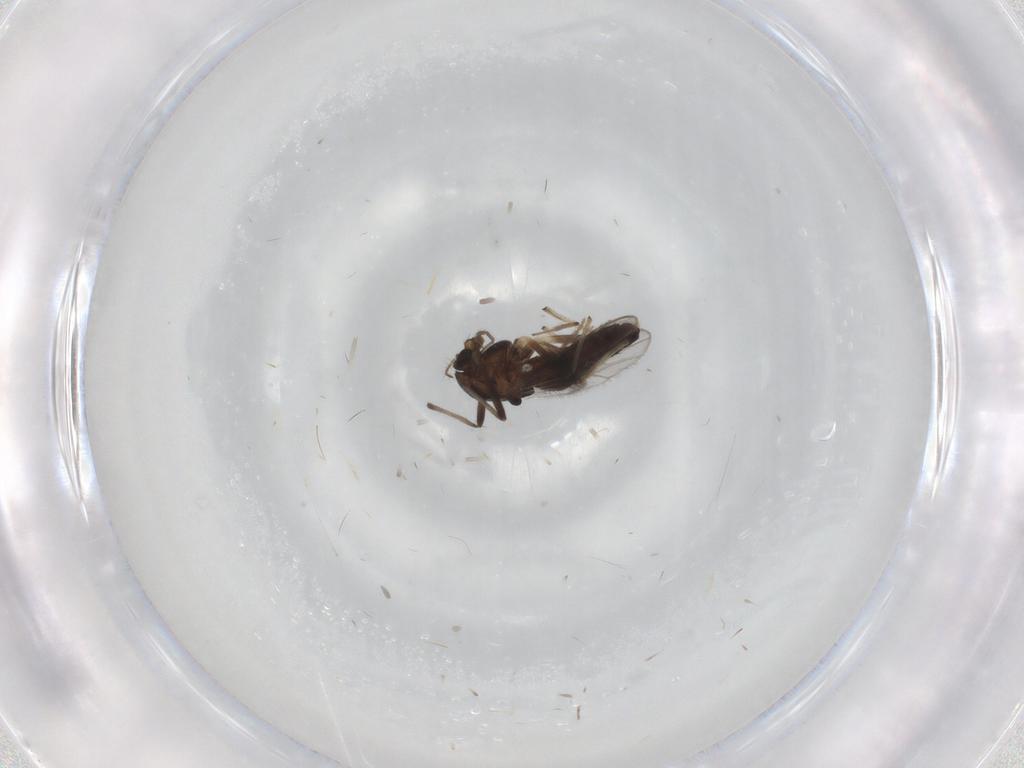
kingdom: Animalia
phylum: Arthropoda
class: Insecta
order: Diptera
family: Chironomidae
